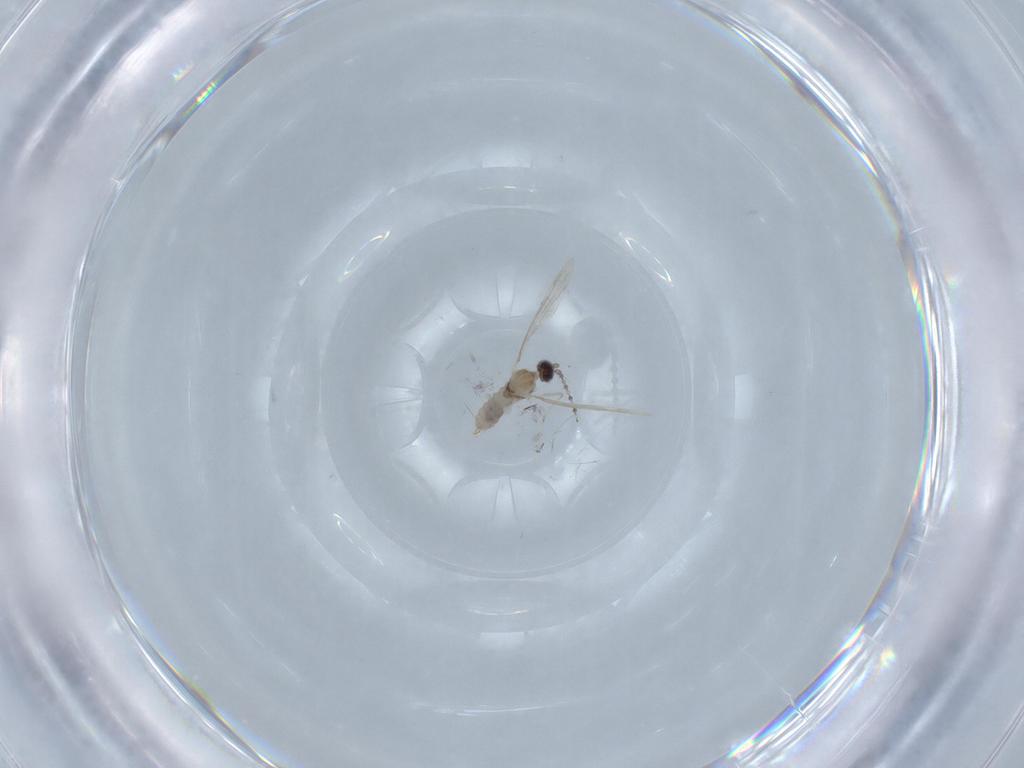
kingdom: Animalia
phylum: Arthropoda
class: Insecta
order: Diptera
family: Cecidomyiidae
